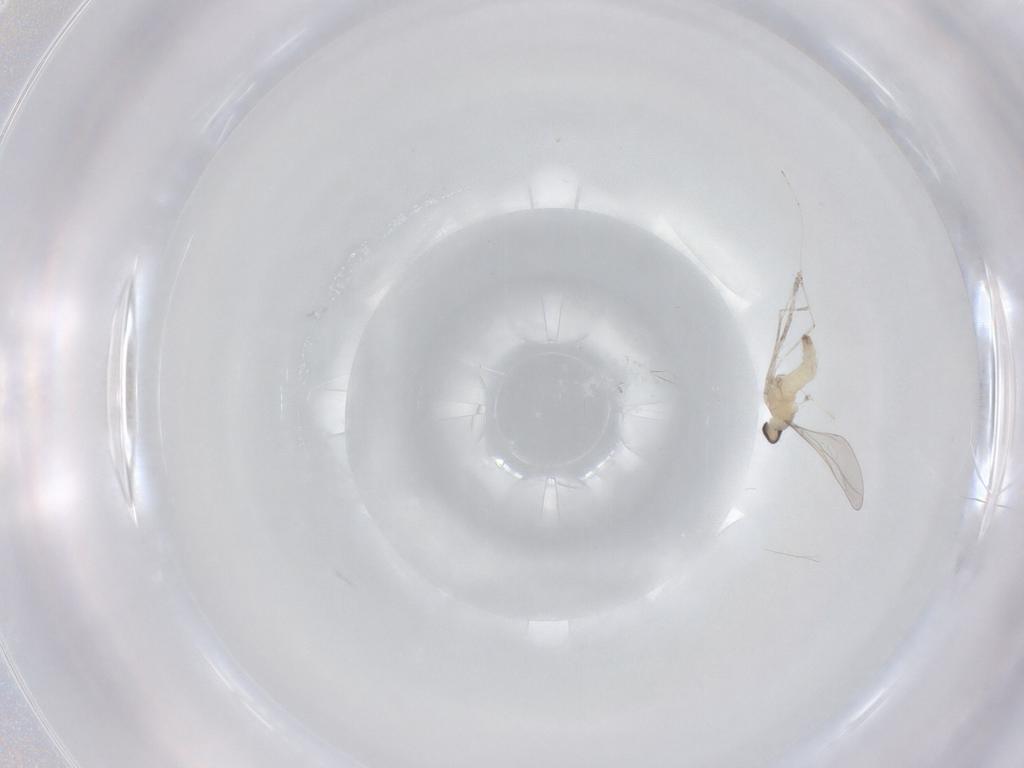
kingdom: Animalia
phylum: Arthropoda
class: Insecta
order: Diptera
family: Cecidomyiidae
